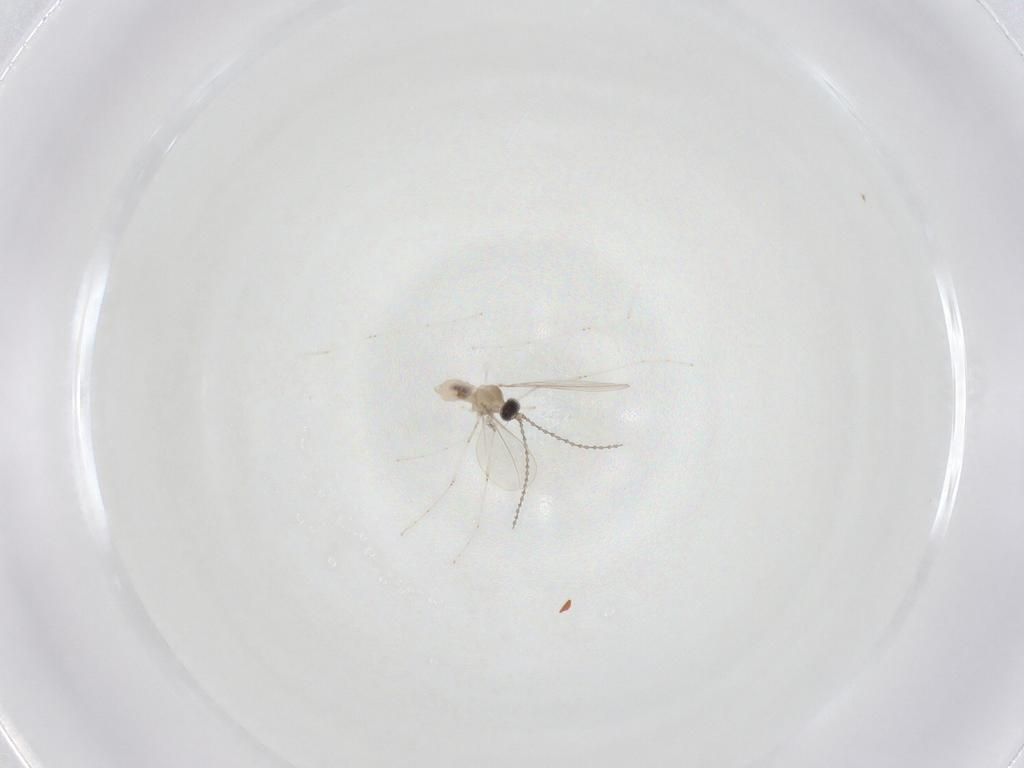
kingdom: Animalia
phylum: Arthropoda
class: Insecta
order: Diptera
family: Cecidomyiidae
